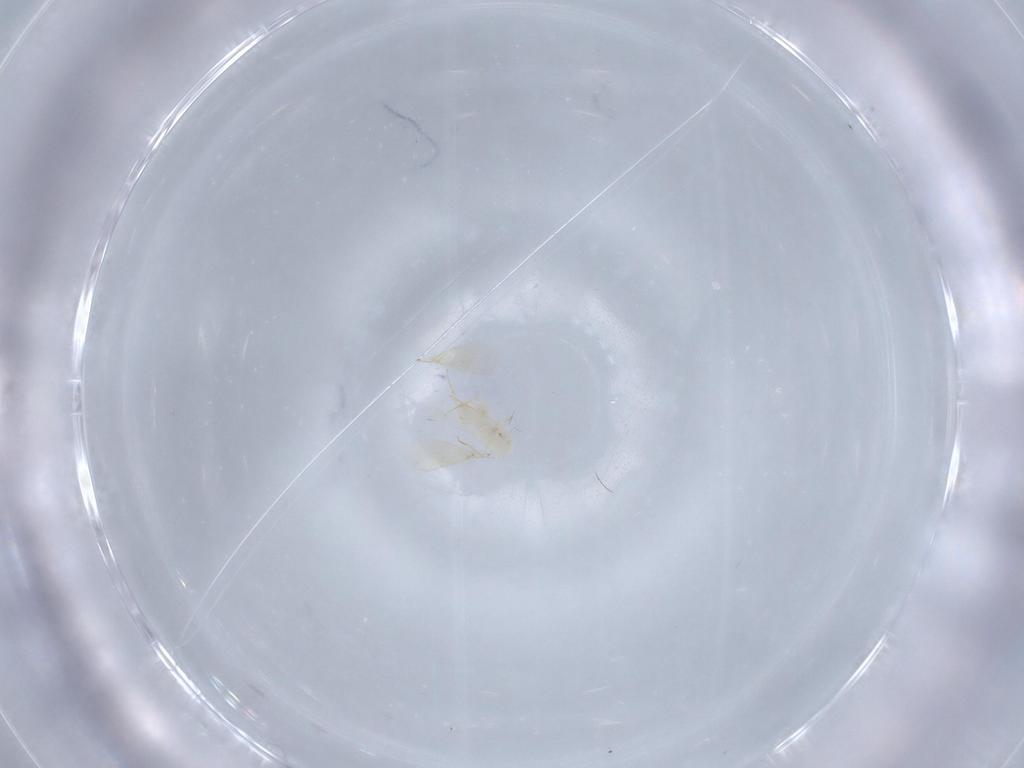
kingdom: Animalia
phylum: Arthropoda
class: Insecta
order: Hymenoptera
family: Aphelinidae
